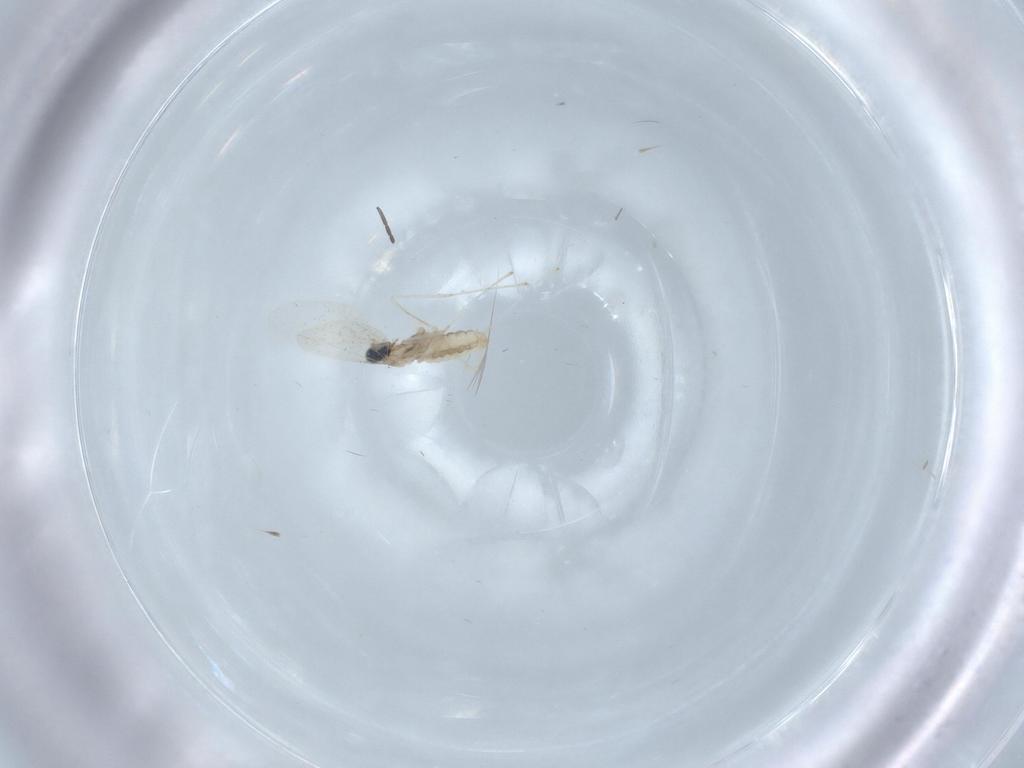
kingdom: Animalia
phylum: Arthropoda
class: Insecta
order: Diptera
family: Cecidomyiidae
